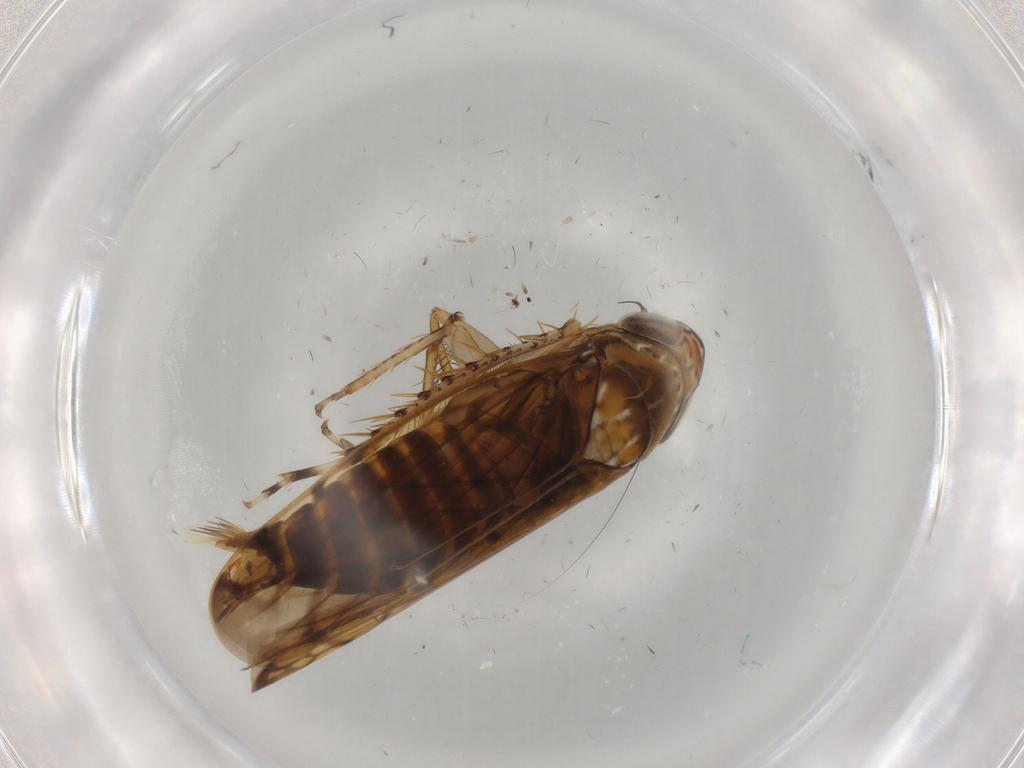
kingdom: Animalia
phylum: Arthropoda
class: Insecta
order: Hemiptera
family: Cicadellidae
